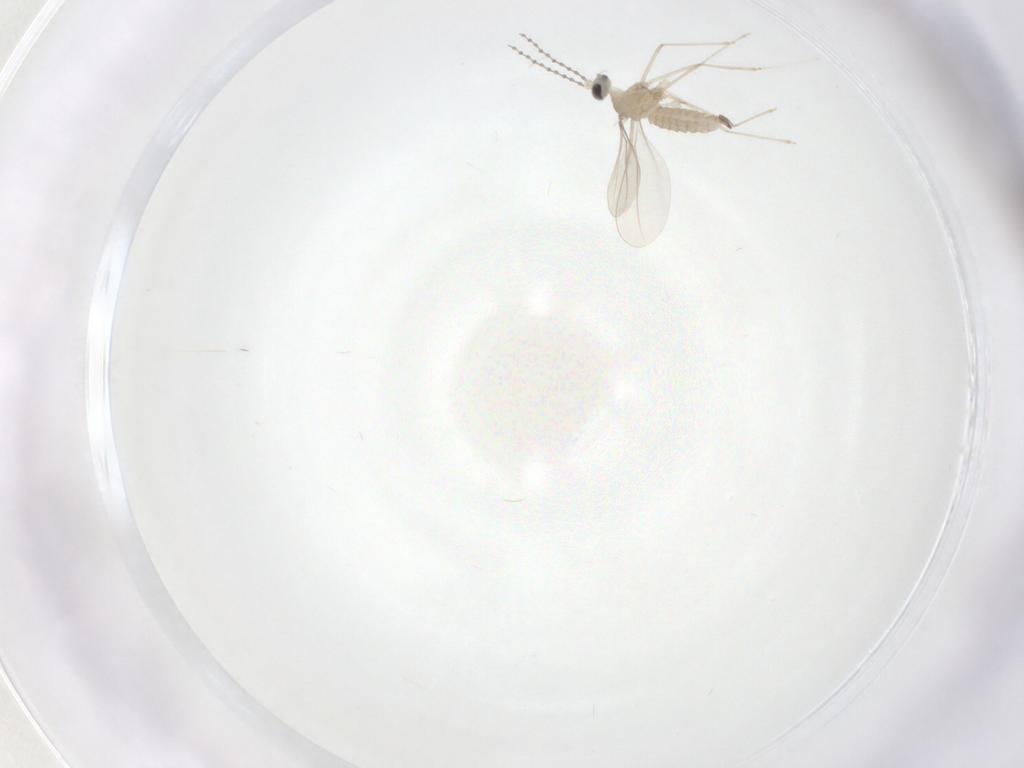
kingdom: Animalia
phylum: Arthropoda
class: Insecta
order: Diptera
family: Cecidomyiidae
